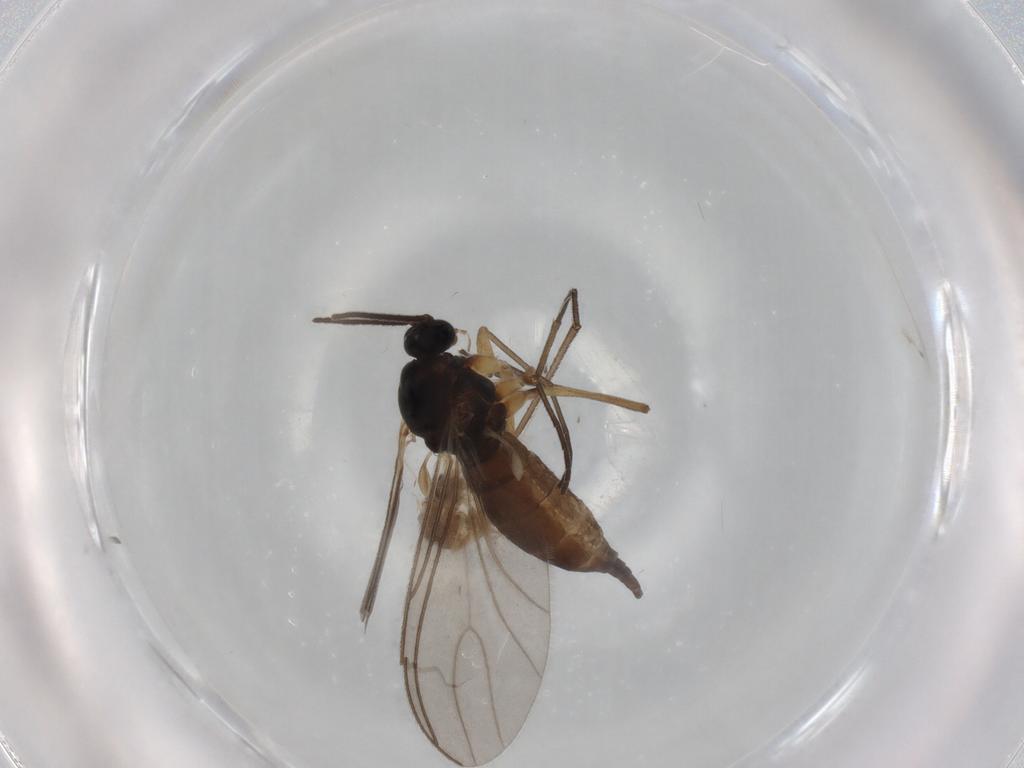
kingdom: Animalia
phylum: Arthropoda
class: Insecta
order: Diptera
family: Sciaridae
